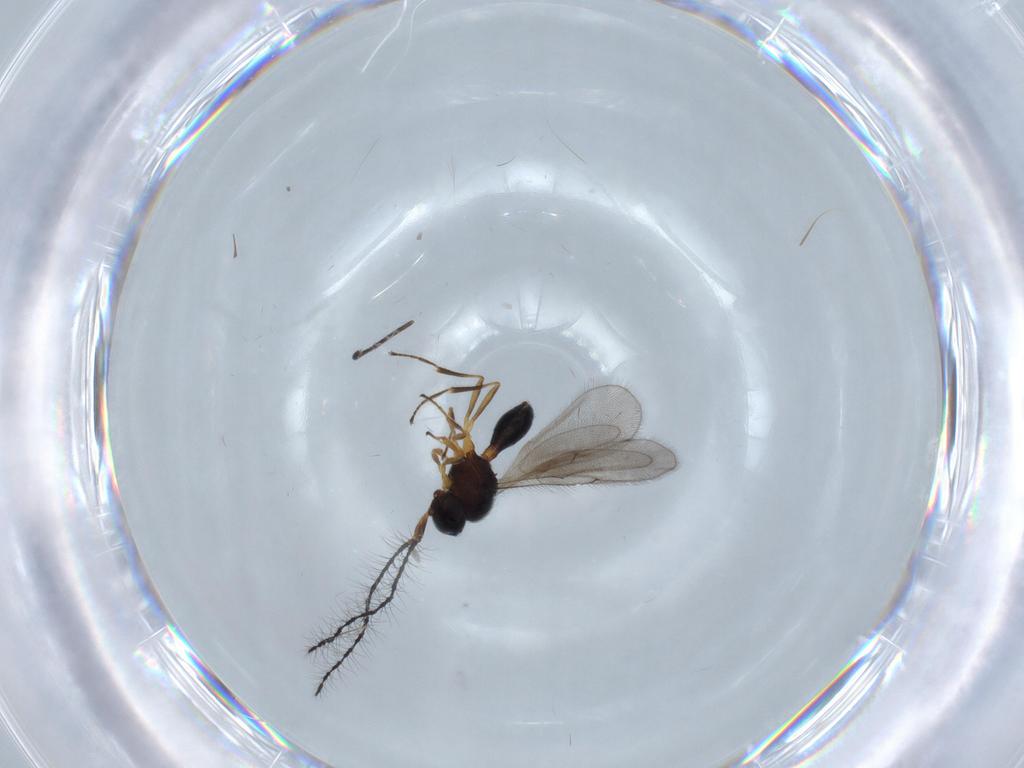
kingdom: Animalia
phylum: Arthropoda
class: Insecta
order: Hymenoptera
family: Scelionidae
